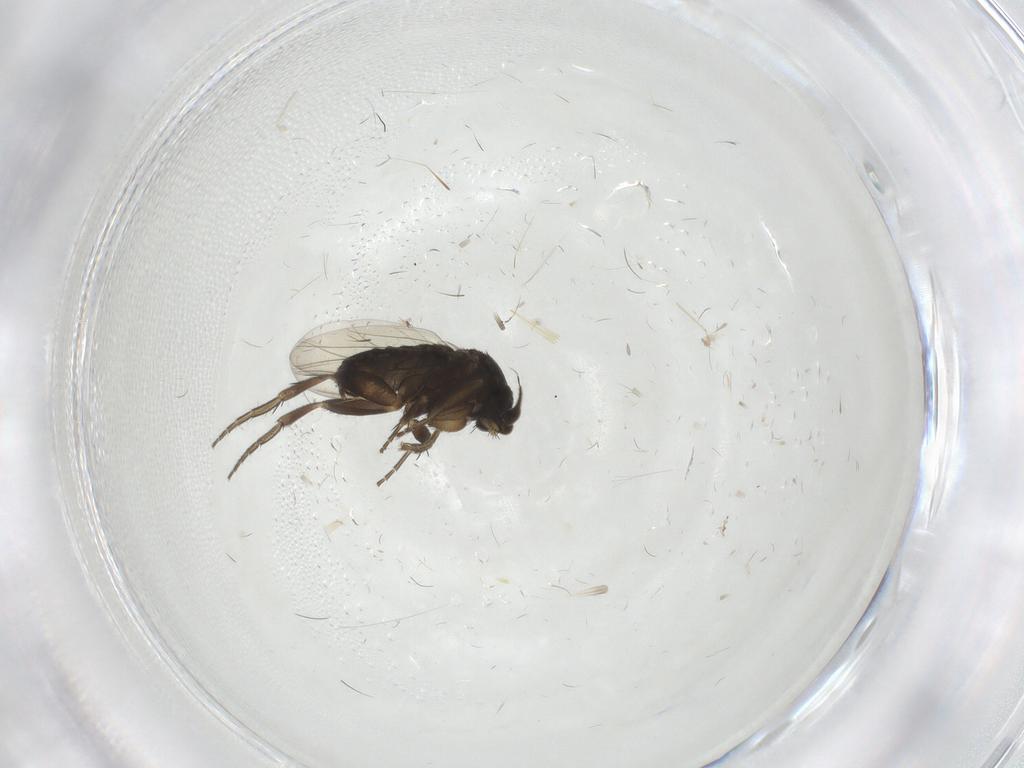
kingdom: Animalia
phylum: Arthropoda
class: Insecta
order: Diptera
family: Phoridae
